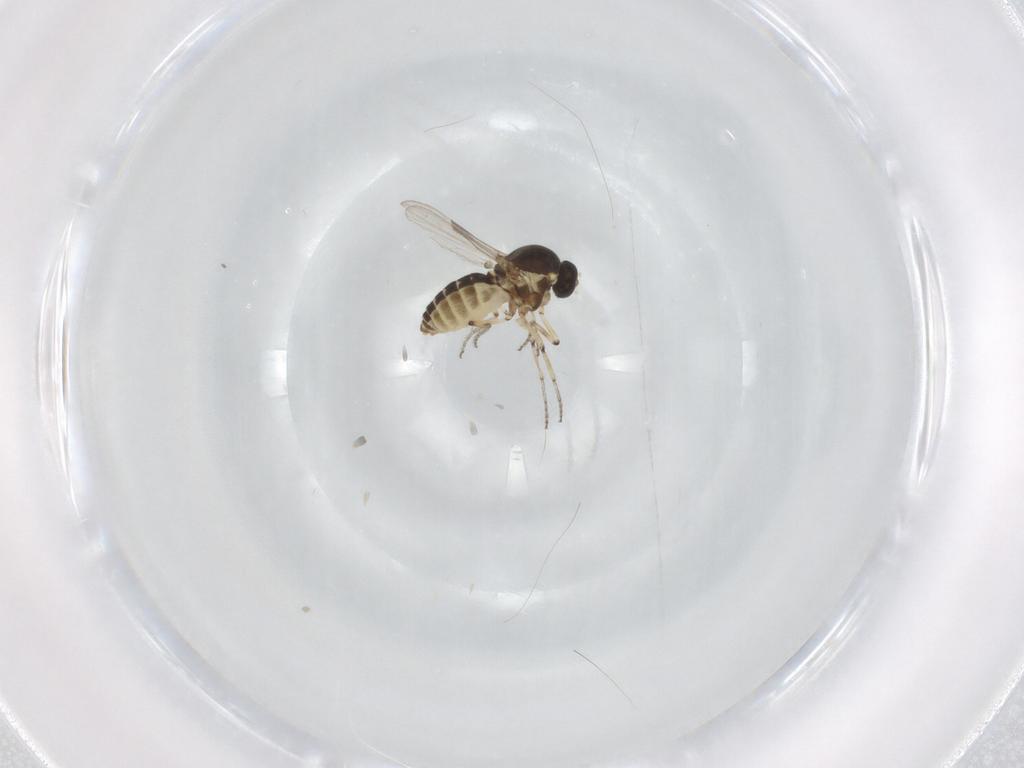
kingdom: Animalia
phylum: Arthropoda
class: Insecta
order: Diptera
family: Ceratopogonidae
